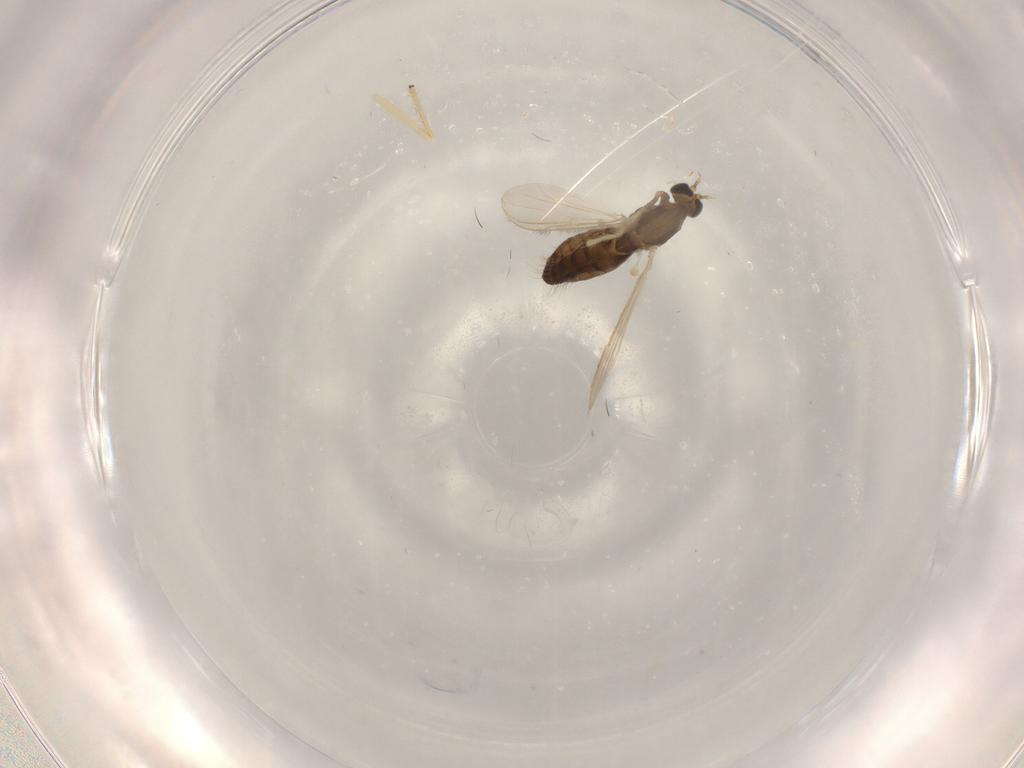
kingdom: Animalia
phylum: Arthropoda
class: Insecta
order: Diptera
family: Chironomidae
